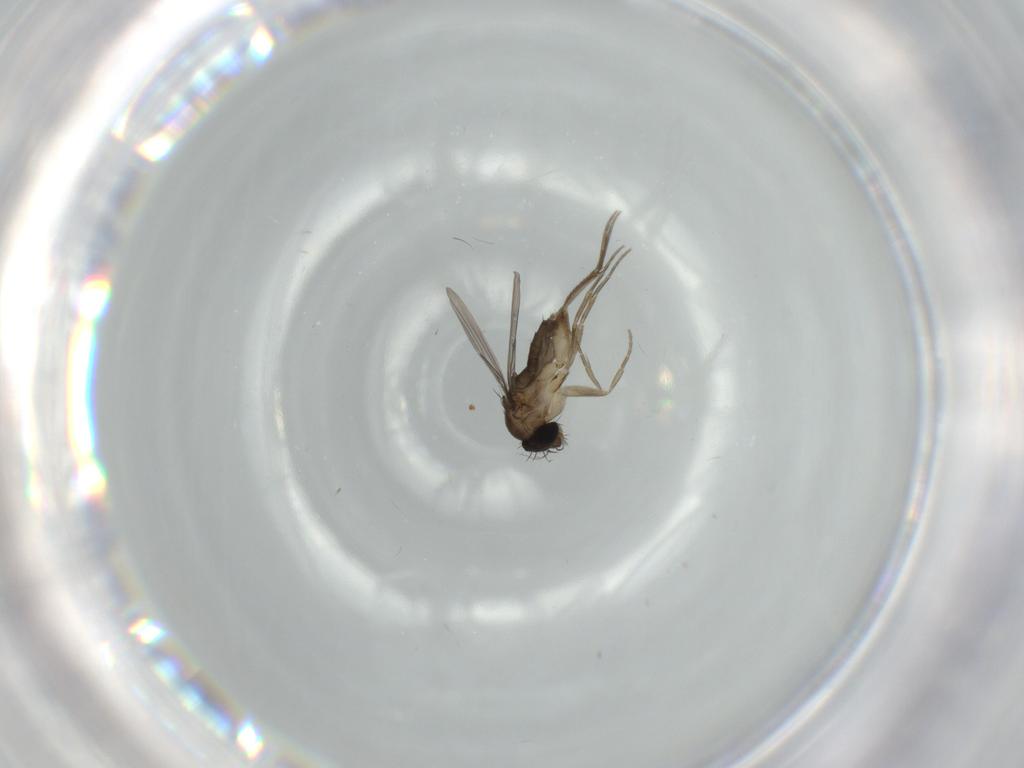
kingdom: Animalia
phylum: Arthropoda
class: Insecta
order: Diptera
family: Phoridae
